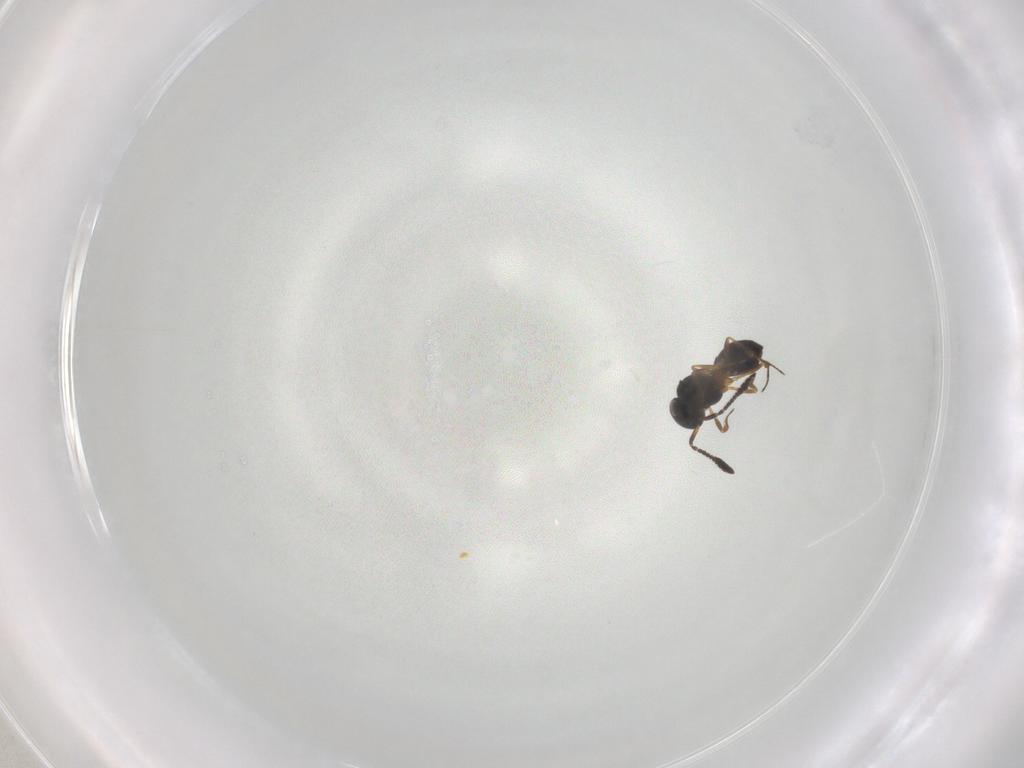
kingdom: Animalia
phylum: Arthropoda
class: Insecta
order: Hymenoptera
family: Scelionidae
